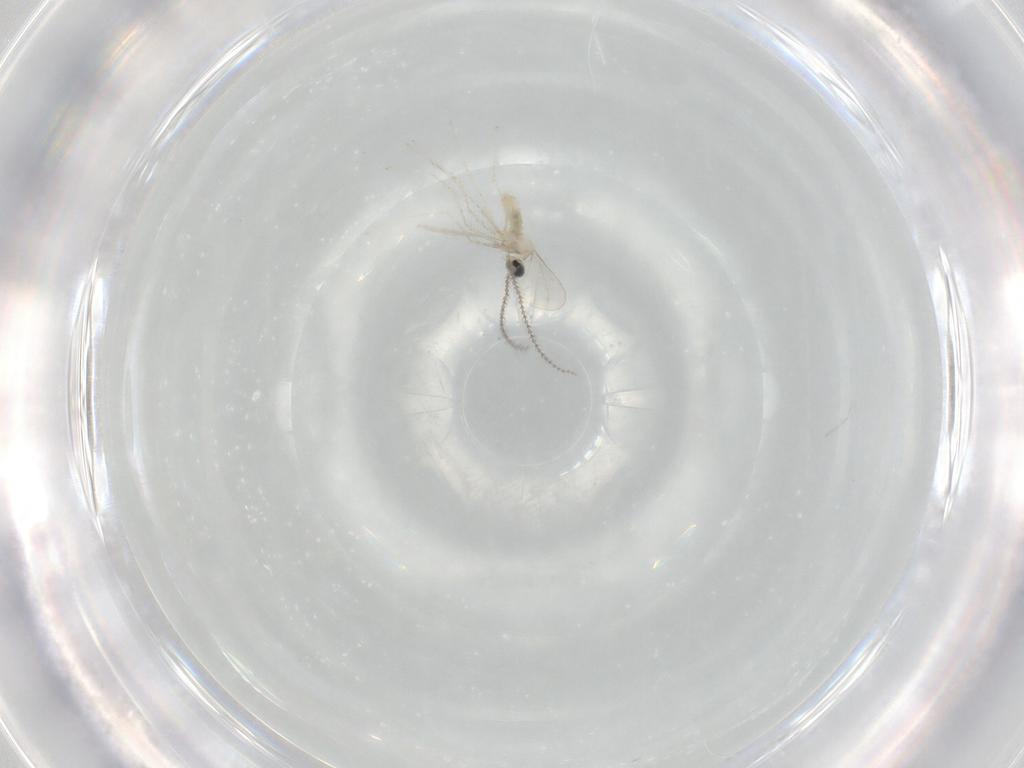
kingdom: Animalia
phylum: Arthropoda
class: Insecta
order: Diptera
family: Cecidomyiidae
